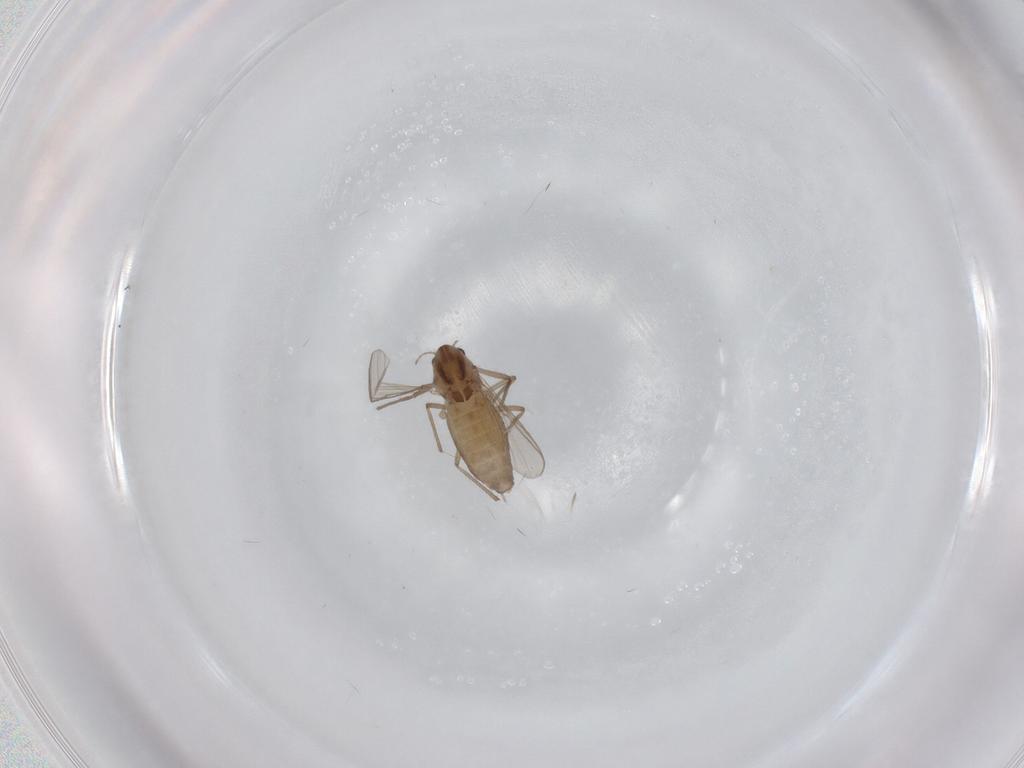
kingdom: Animalia
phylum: Arthropoda
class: Insecta
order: Diptera
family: Chironomidae
